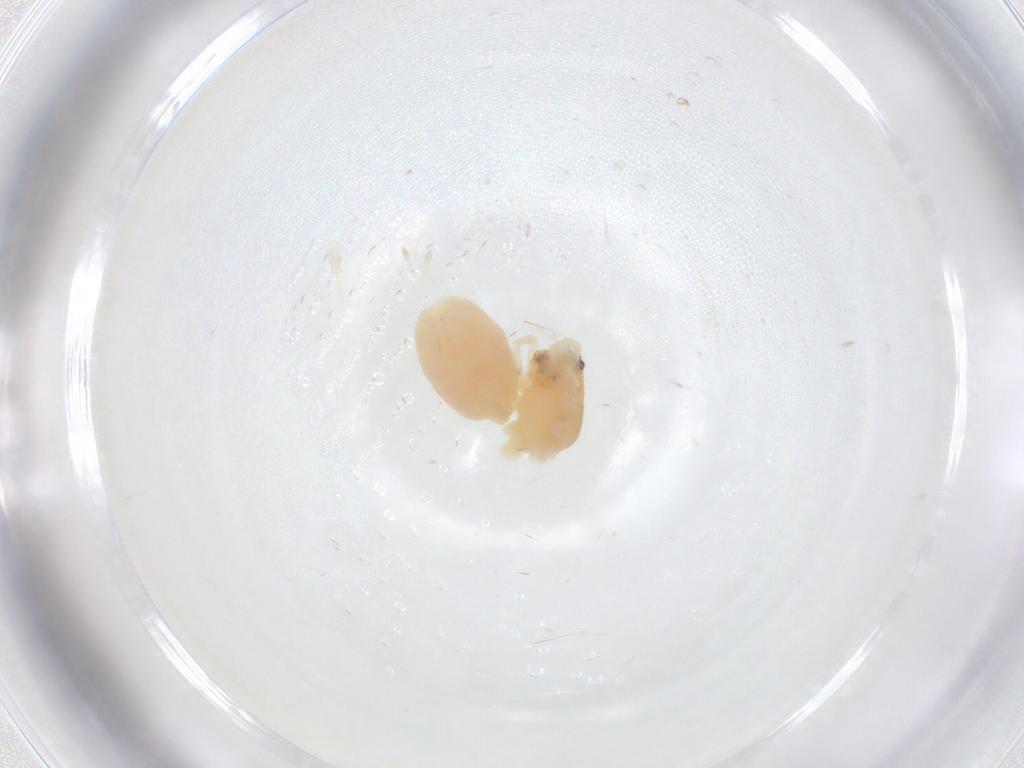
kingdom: Animalia
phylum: Arthropoda
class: Arachnida
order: Araneae
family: Anyphaenidae
